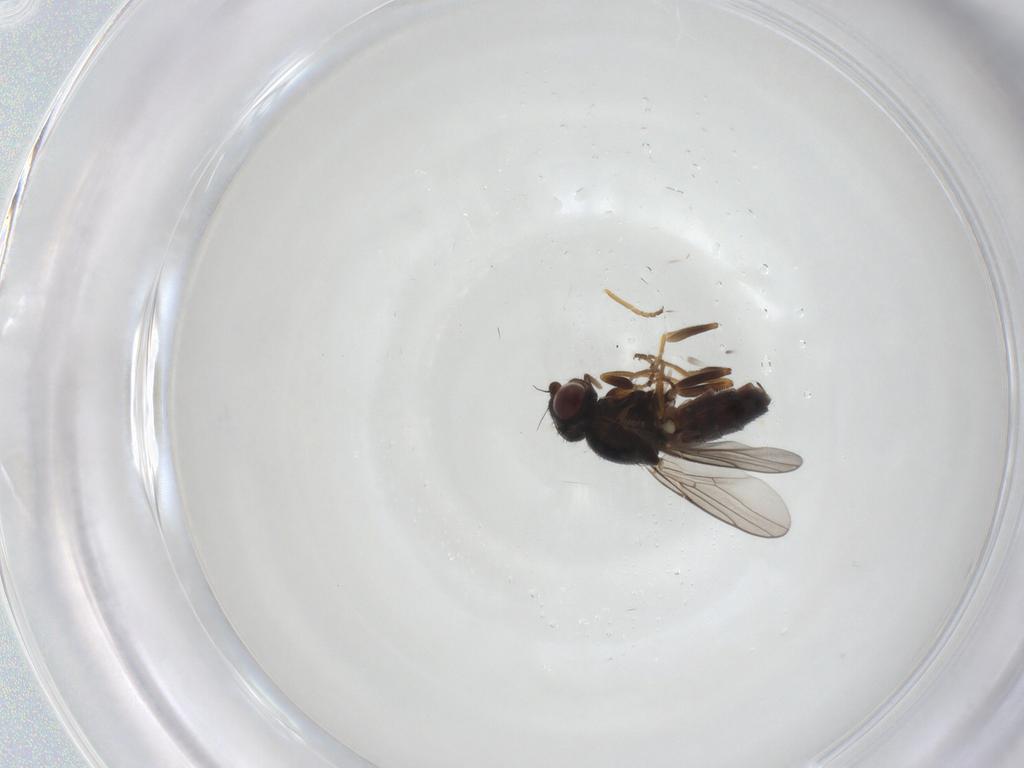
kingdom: Animalia
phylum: Arthropoda
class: Insecta
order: Diptera
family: Chloropidae
